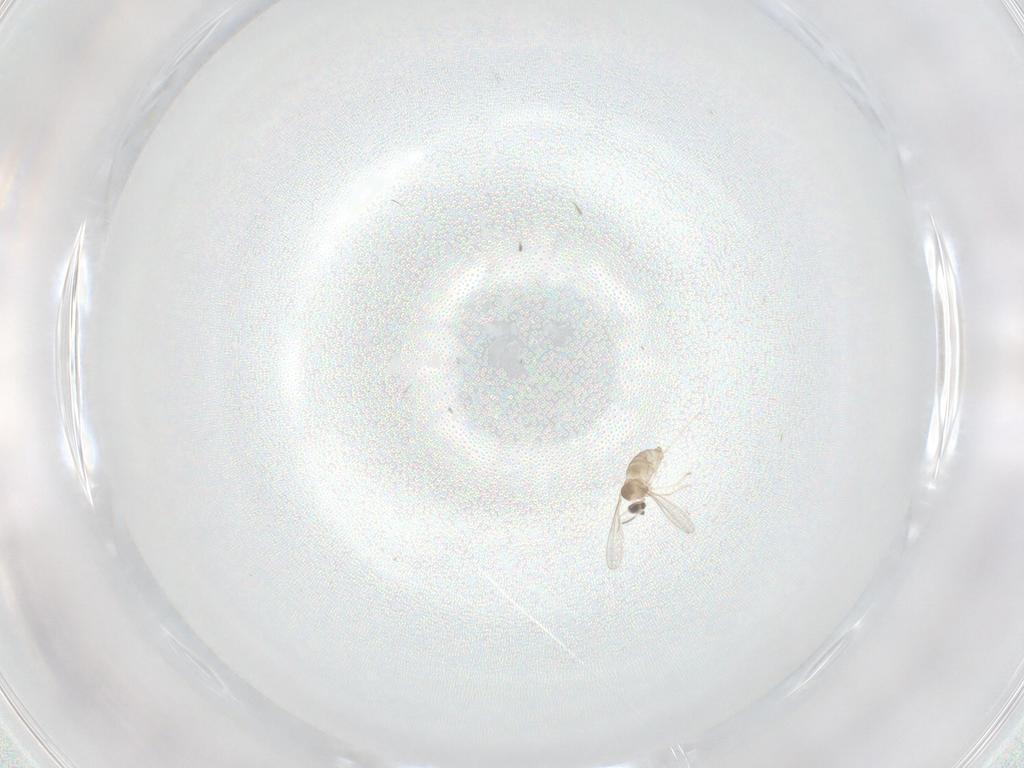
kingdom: Animalia
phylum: Arthropoda
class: Insecta
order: Diptera
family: Cecidomyiidae
